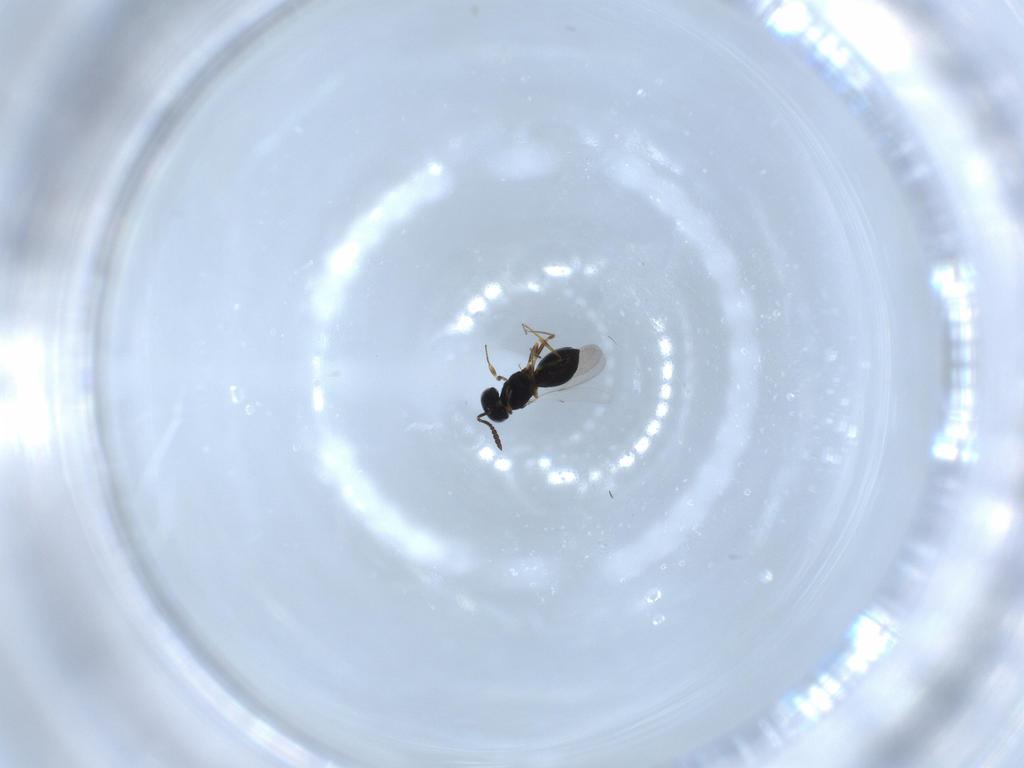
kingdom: Animalia
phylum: Arthropoda
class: Insecta
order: Hymenoptera
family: Scelionidae
